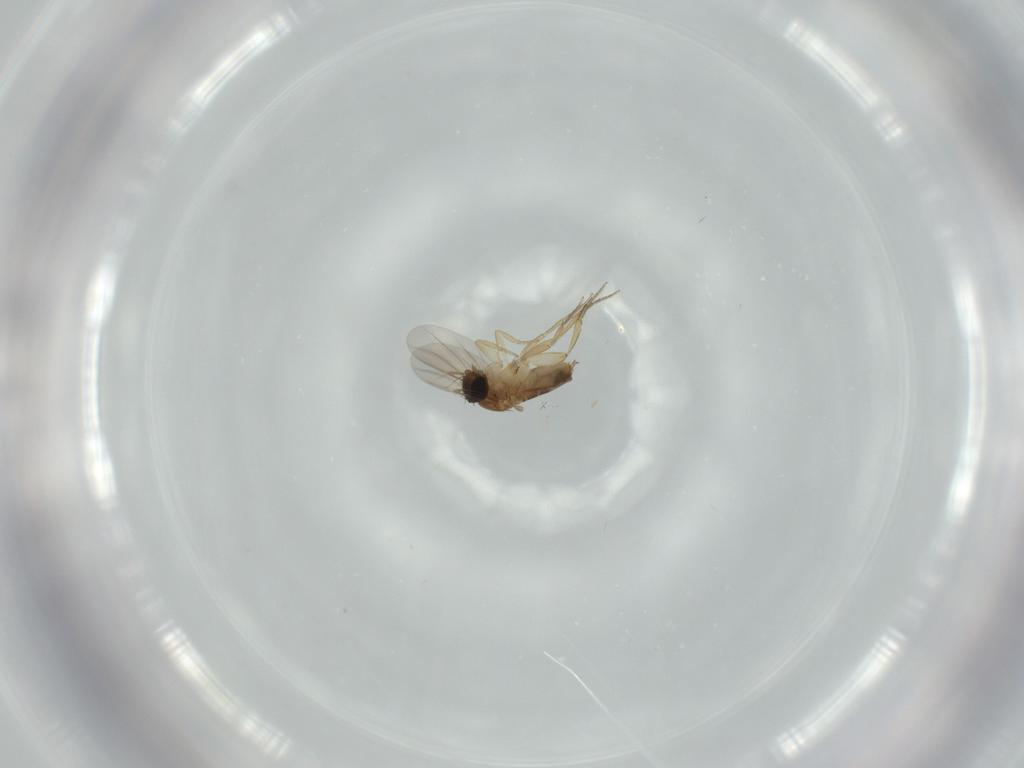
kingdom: Animalia
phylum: Arthropoda
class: Insecta
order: Diptera
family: Phoridae
